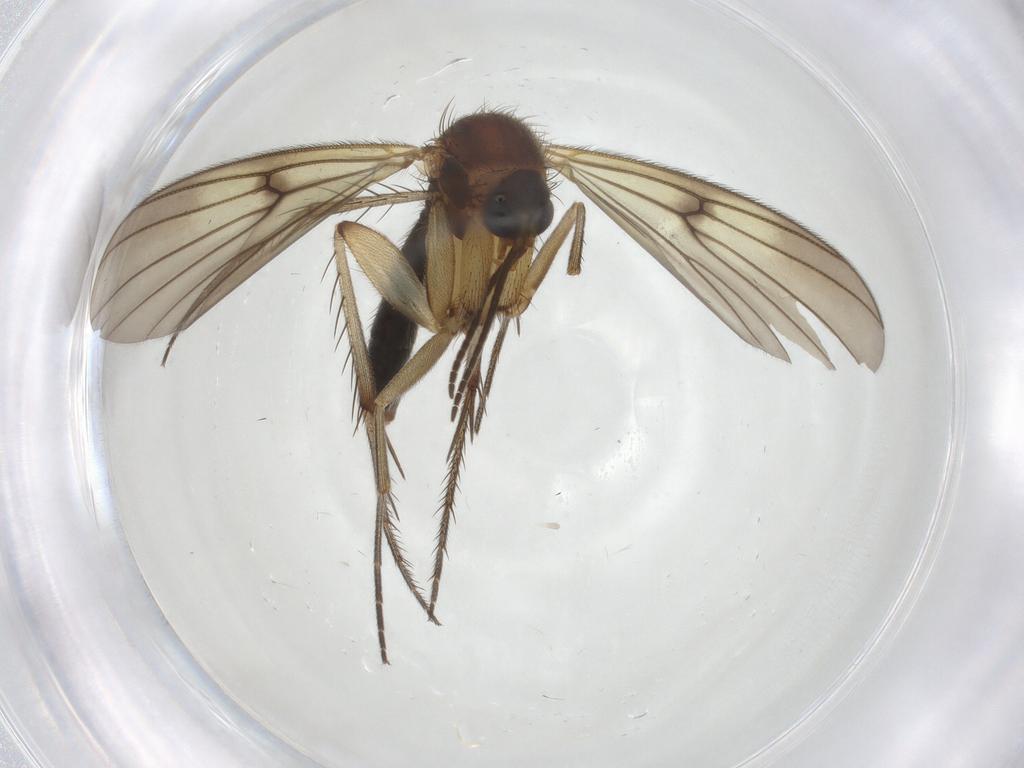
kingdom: Animalia
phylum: Arthropoda
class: Insecta
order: Diptera
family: Mycetophilidae
